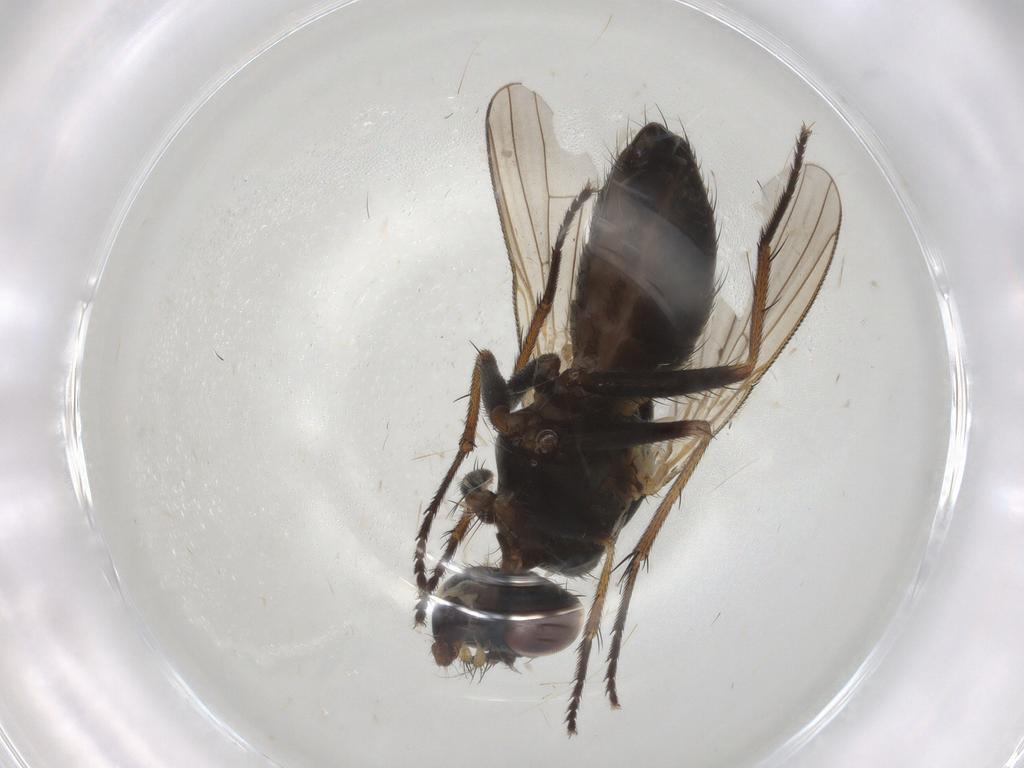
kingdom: Animalia
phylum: Arthropoda
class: Insecta
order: Diptera
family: Ceratopogonidae
